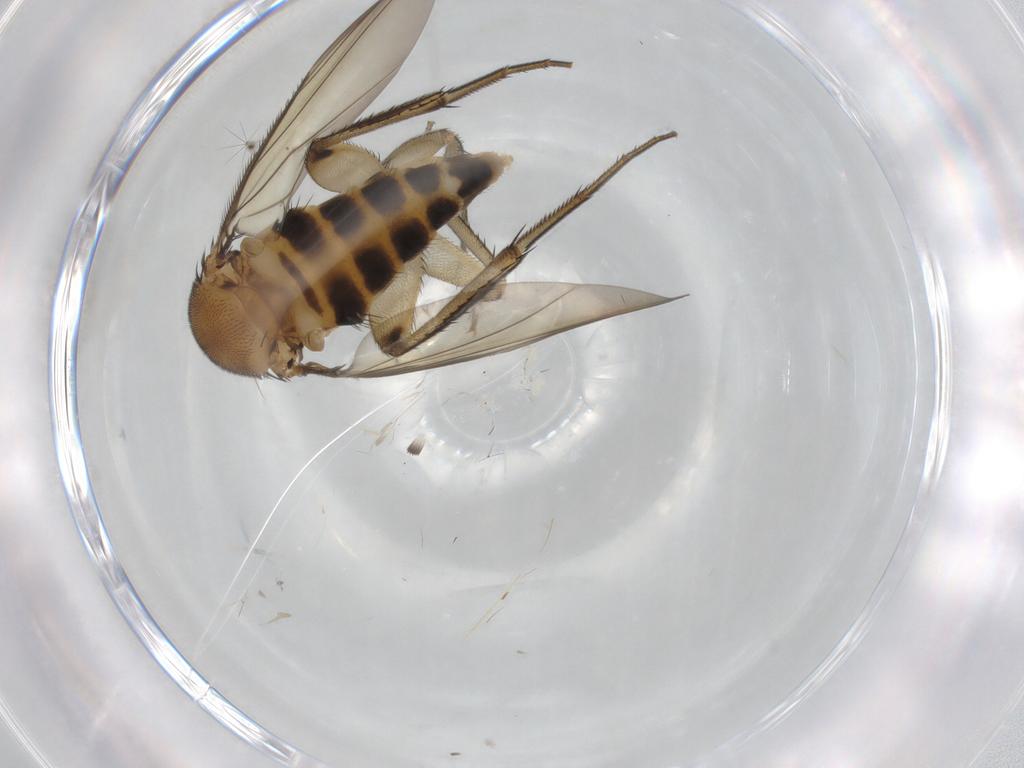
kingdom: Animalia
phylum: Arthropoda
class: Insecta
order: Diptera
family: Phoridae
